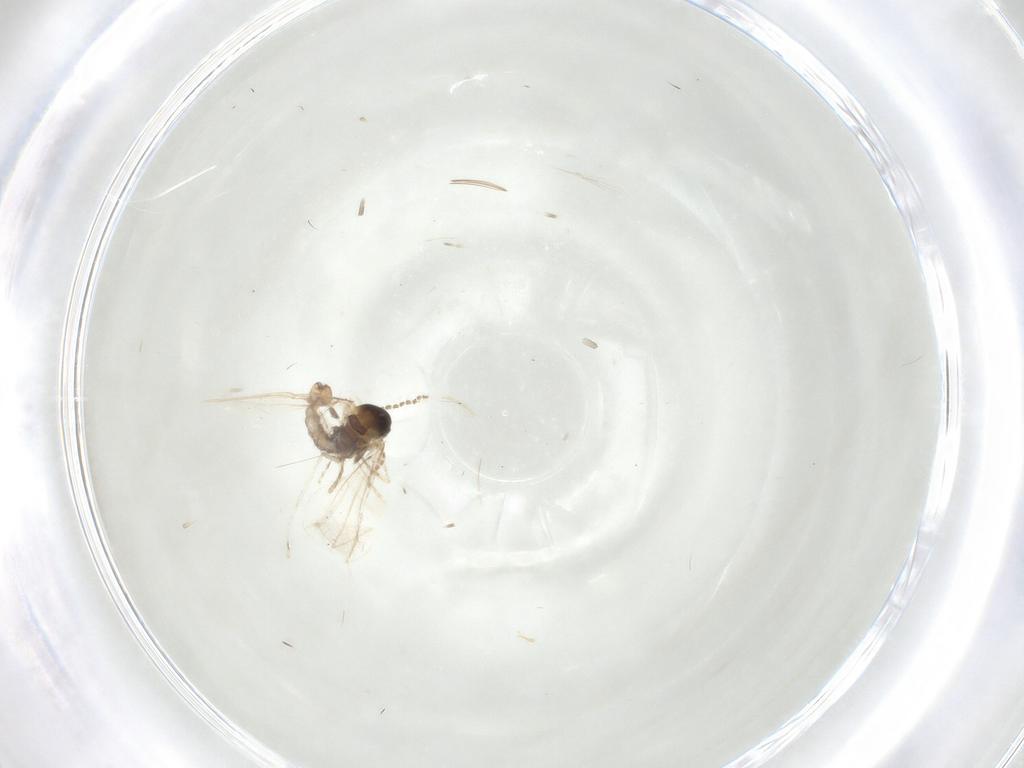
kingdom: Animalia
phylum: Arthropoda
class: Insecta
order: Diptera
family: Cecidomyiidae
